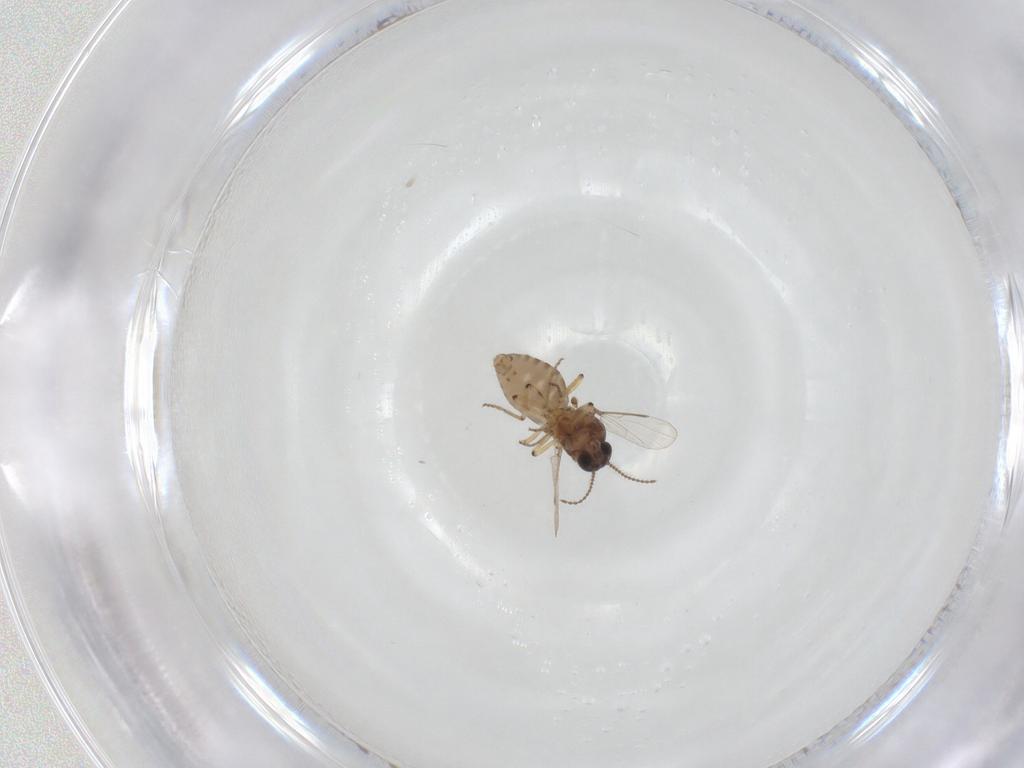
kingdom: Animalia
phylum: Arthropoda
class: Insecta
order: Diptera
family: Ceratopogonidae
